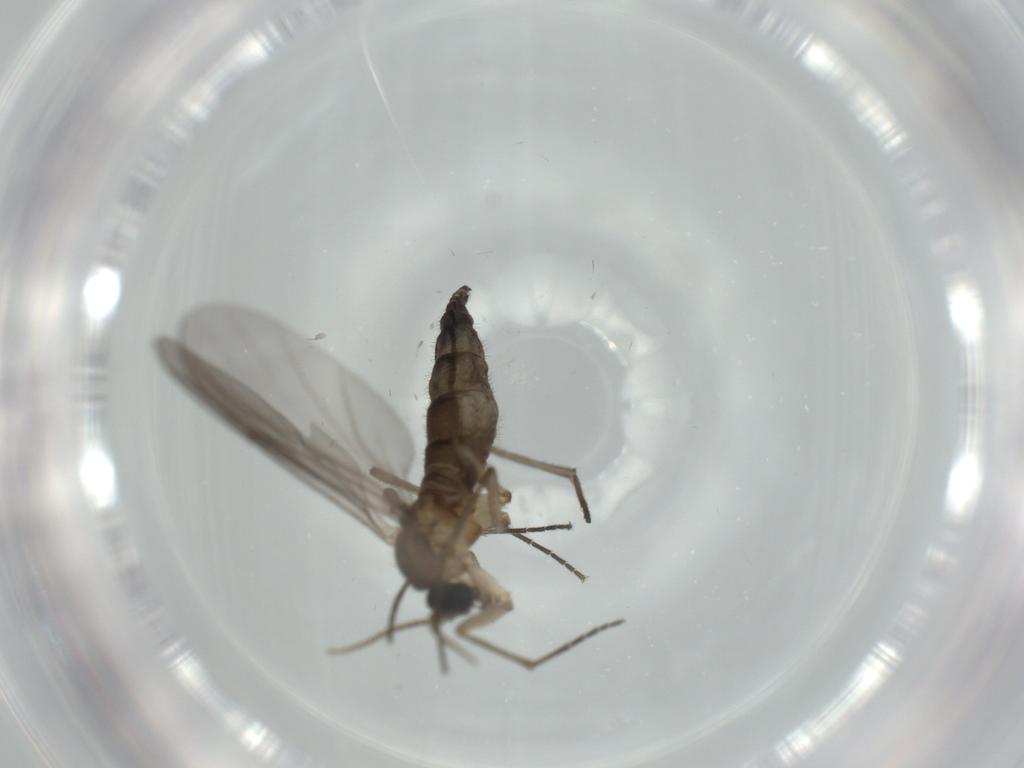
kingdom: Animalia
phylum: Arthropoda
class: Insecta
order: Diptera
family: Sciaridae
